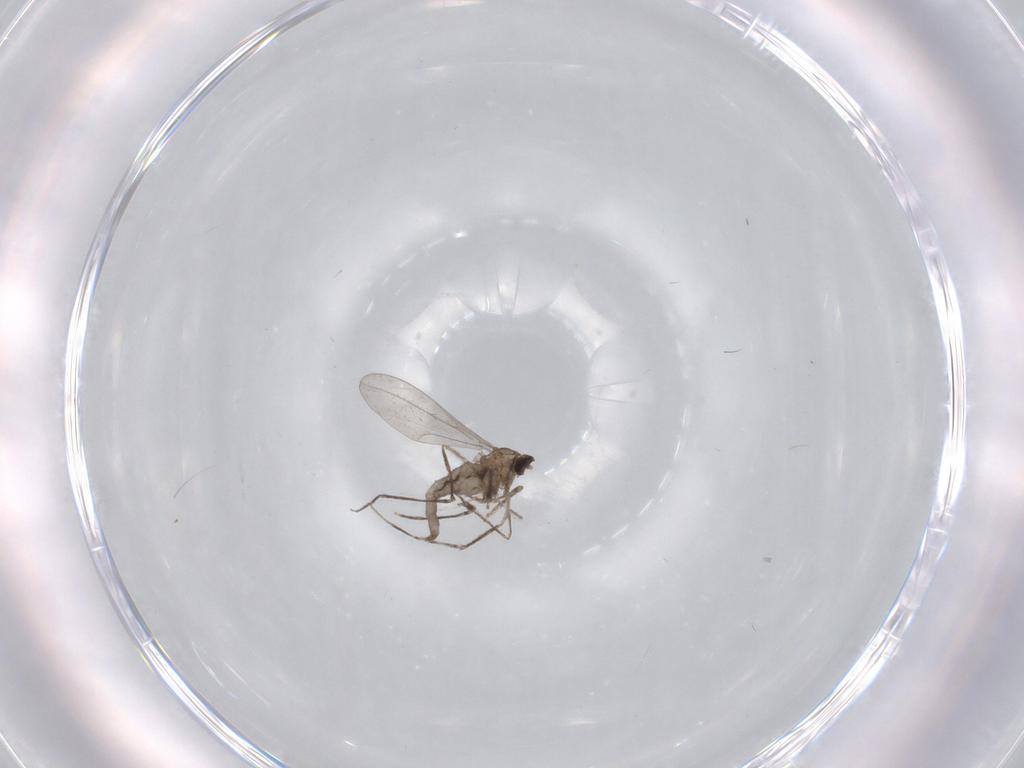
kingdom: Animalia
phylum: Arthropoda
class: Insecta
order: Diptera
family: Cecidomyiidae
